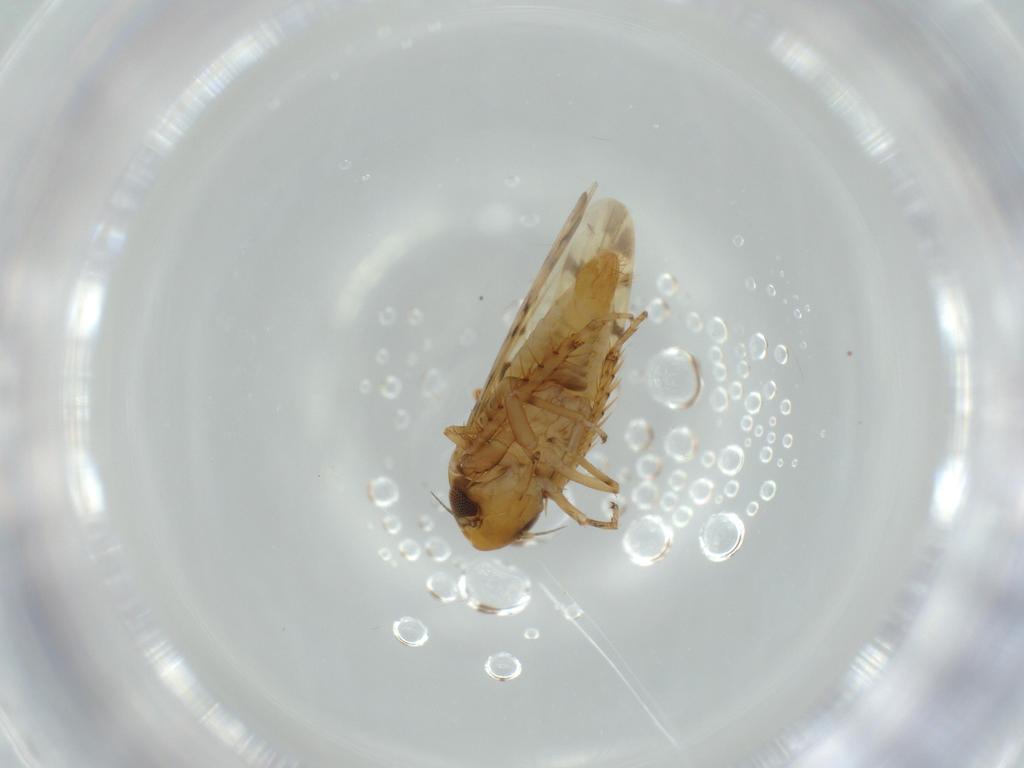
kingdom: Animalia
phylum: Arthropoda
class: Insecta
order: Hemiptera
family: Cicadellidae
